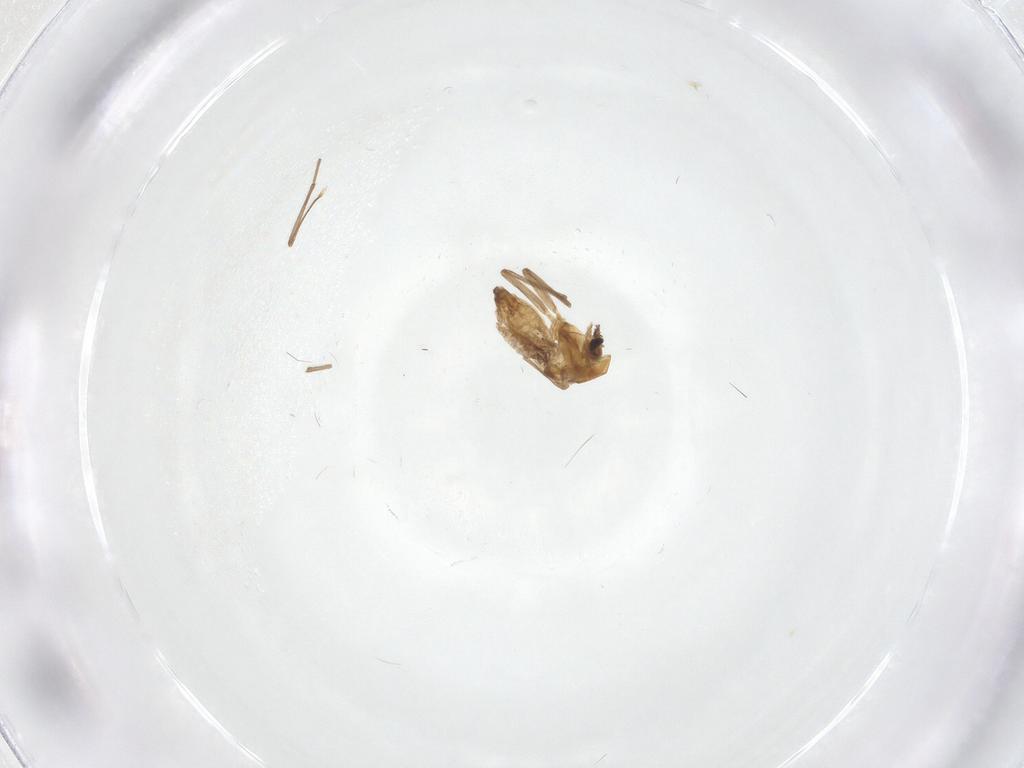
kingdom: Animalia
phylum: Arthropoda
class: Insecta
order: Diptera
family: Chironomidae
